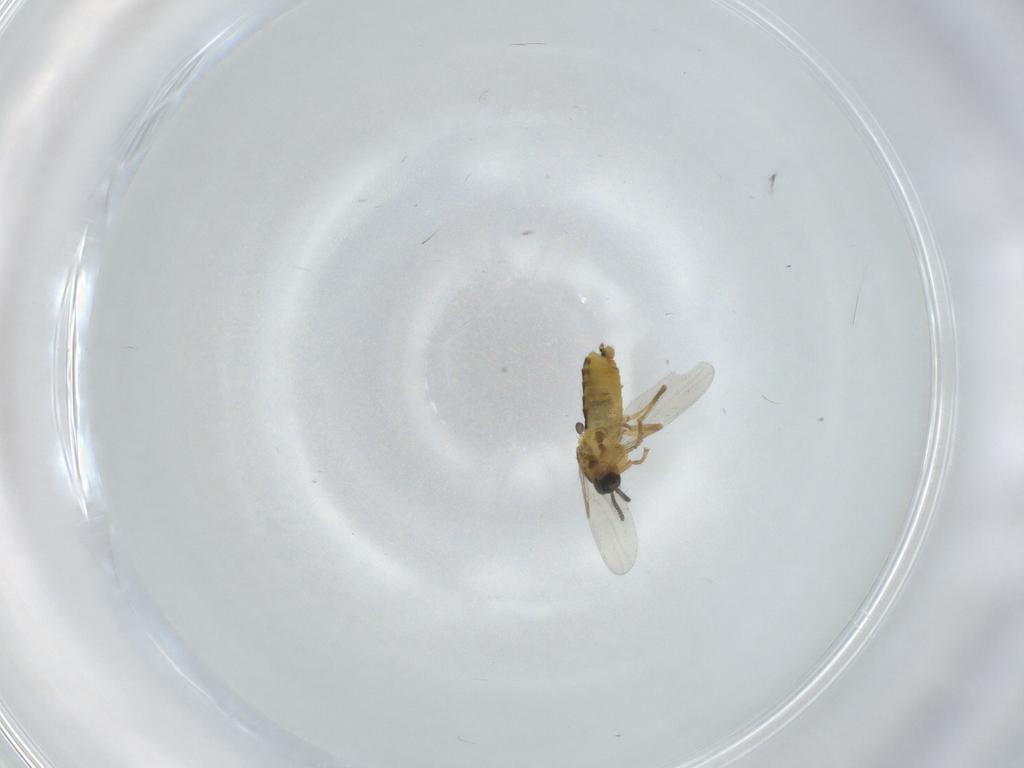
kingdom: Animalia
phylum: Arthropoda
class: Insecta
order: Diptera
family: Scatopsidae
